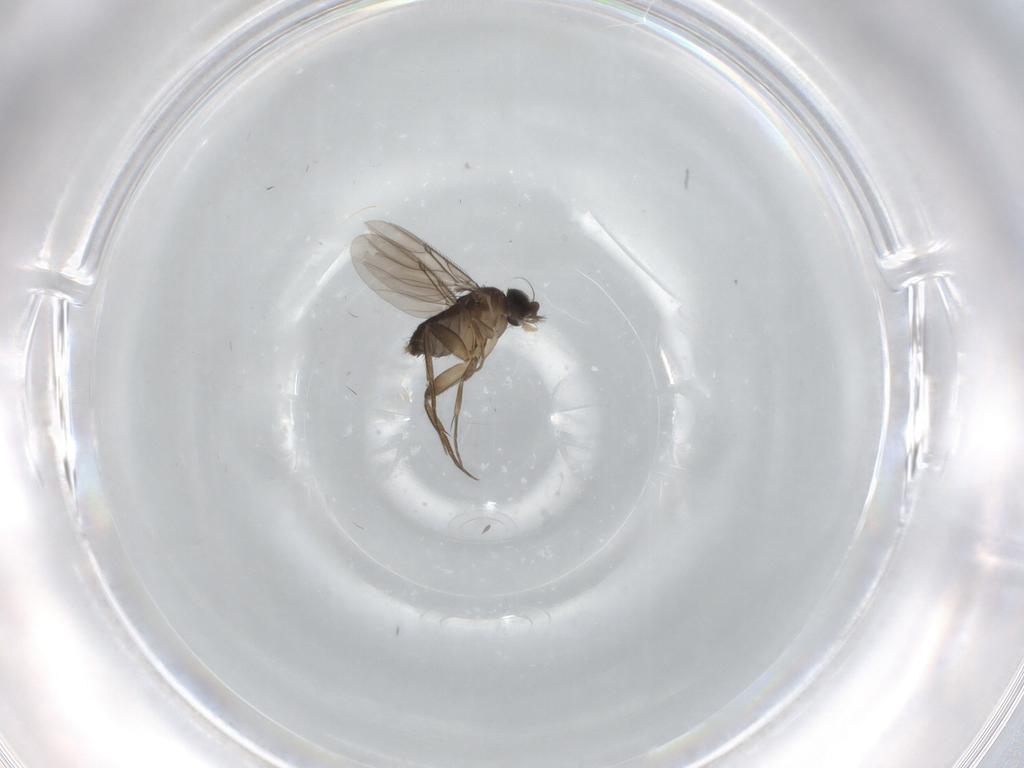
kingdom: Animalia
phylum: Arthropoda
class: Insecta
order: Diptera
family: Phoridae
